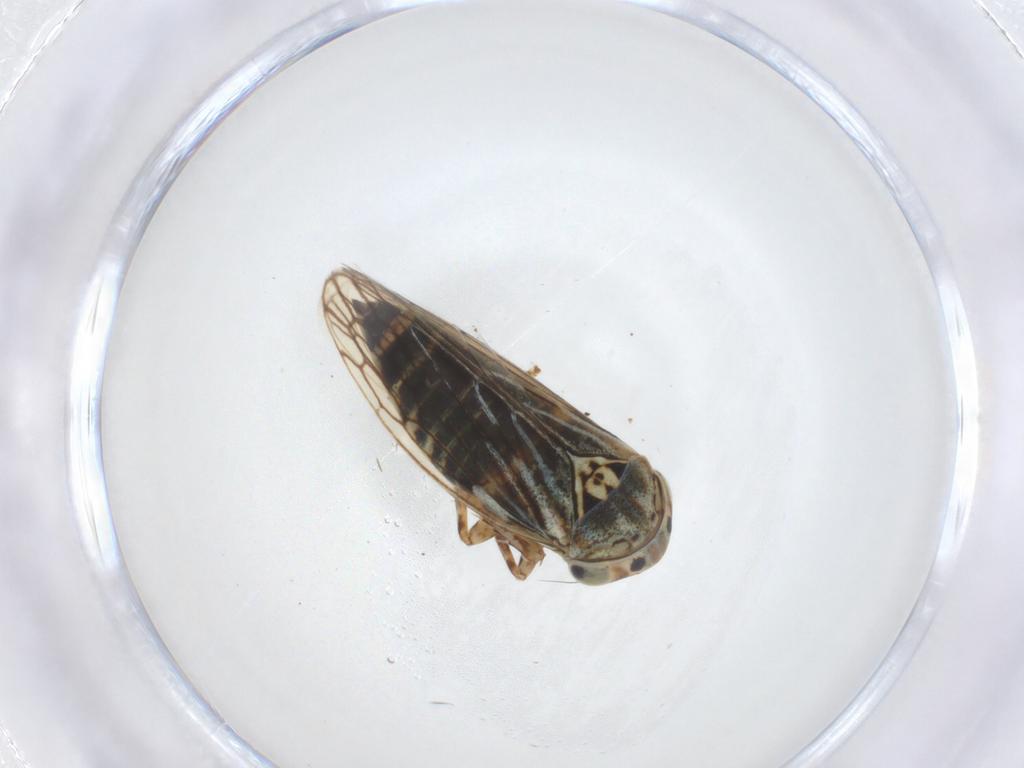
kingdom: Animalia
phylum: Arthropoda
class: Insecta
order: Hemiptera
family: Cicadellidae
